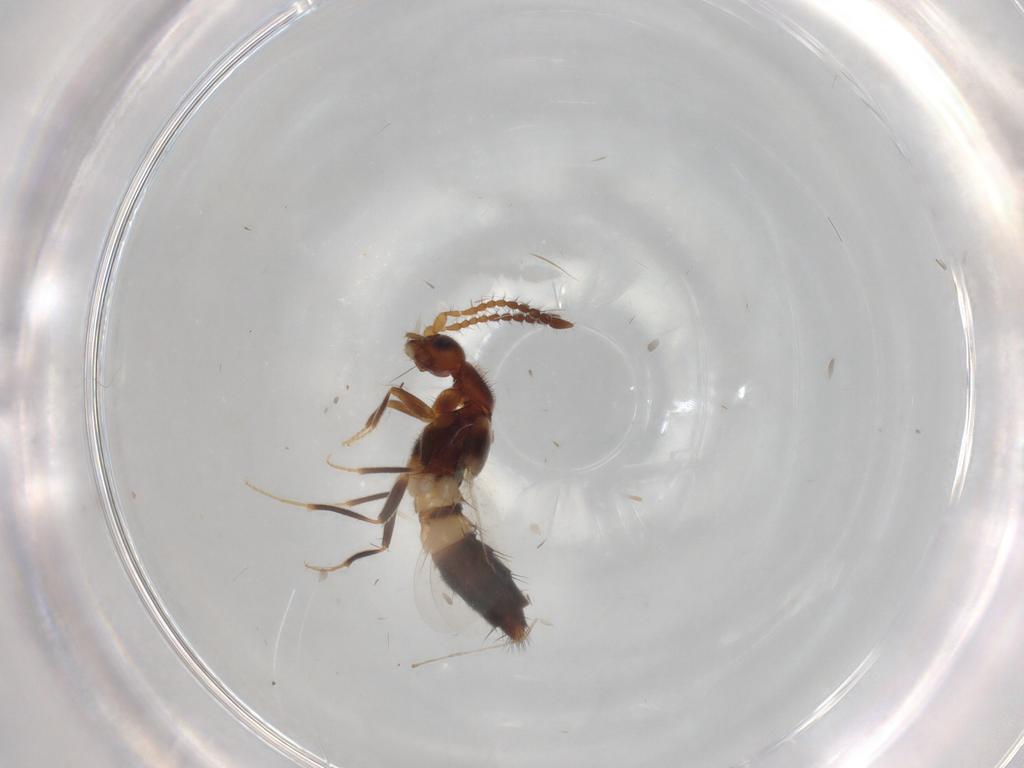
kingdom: Animalia
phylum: Arthropoda
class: Insecta
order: Coleoptera
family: Staphylinidae
